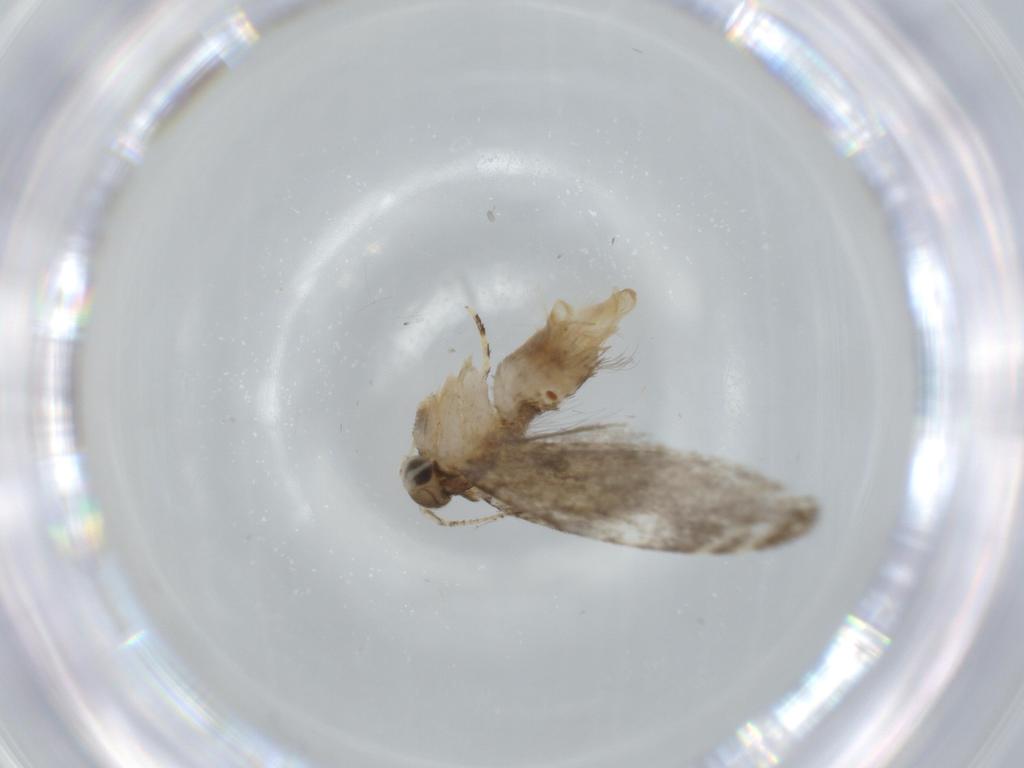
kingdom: Animalia
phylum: Arthropoda
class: Insecta
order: Lepidoptera
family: Tineidae
